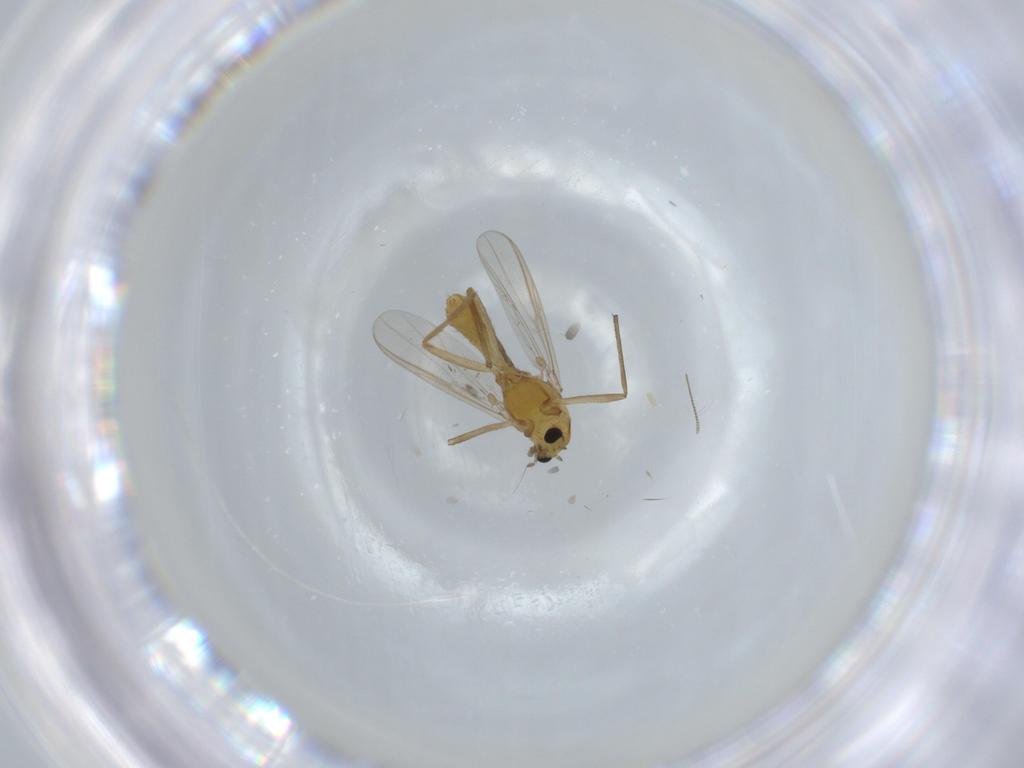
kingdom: Animalia
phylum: Arthropoda
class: Insecta
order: Diptera
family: Chironomidae
